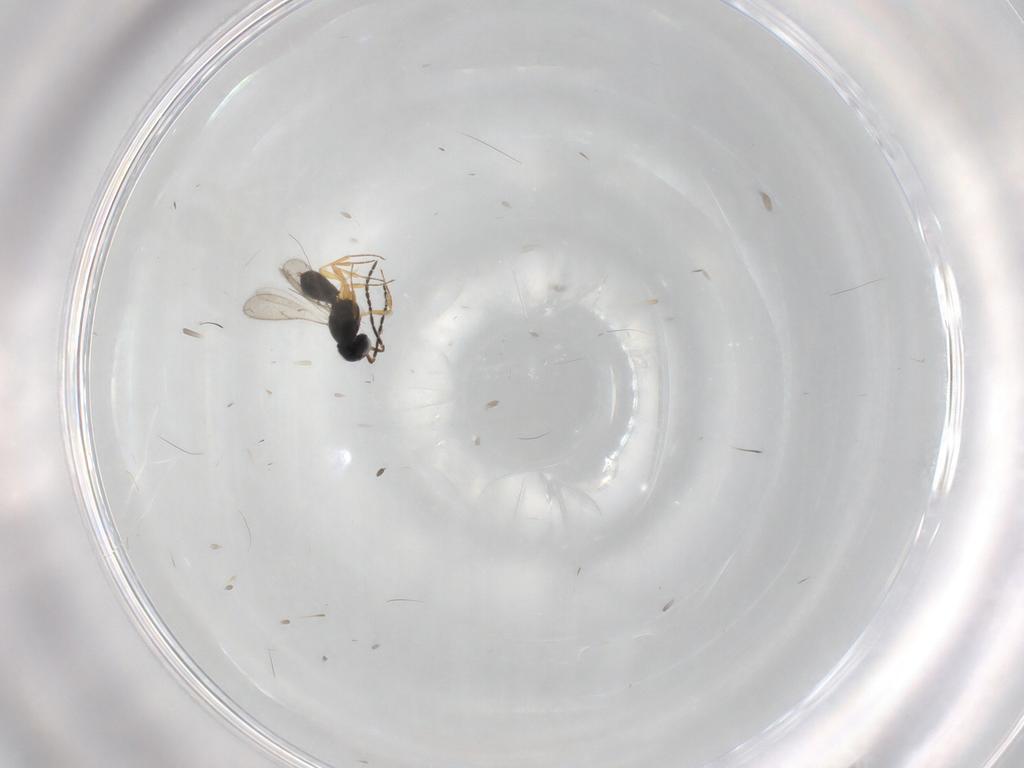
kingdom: Animalia
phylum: Arthropoda
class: Insecta
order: Hymenoptera
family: Scelionidae
